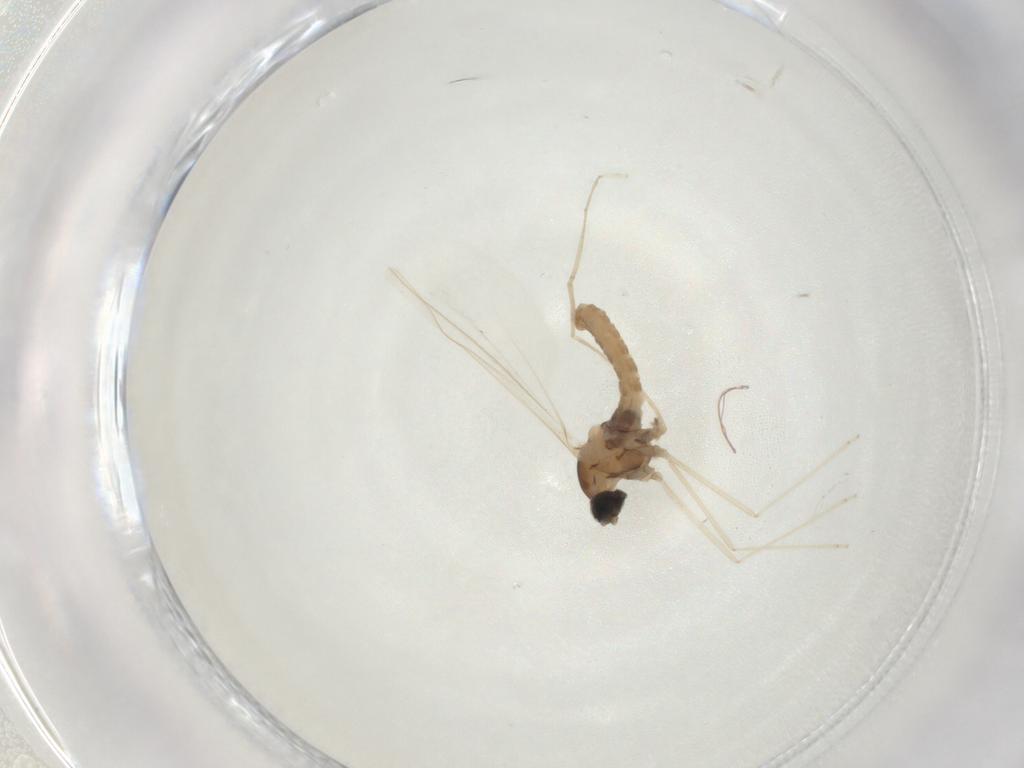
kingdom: Animalia
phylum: Arthropoda
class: Insecta
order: Diptera
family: Cecidomyiidae
